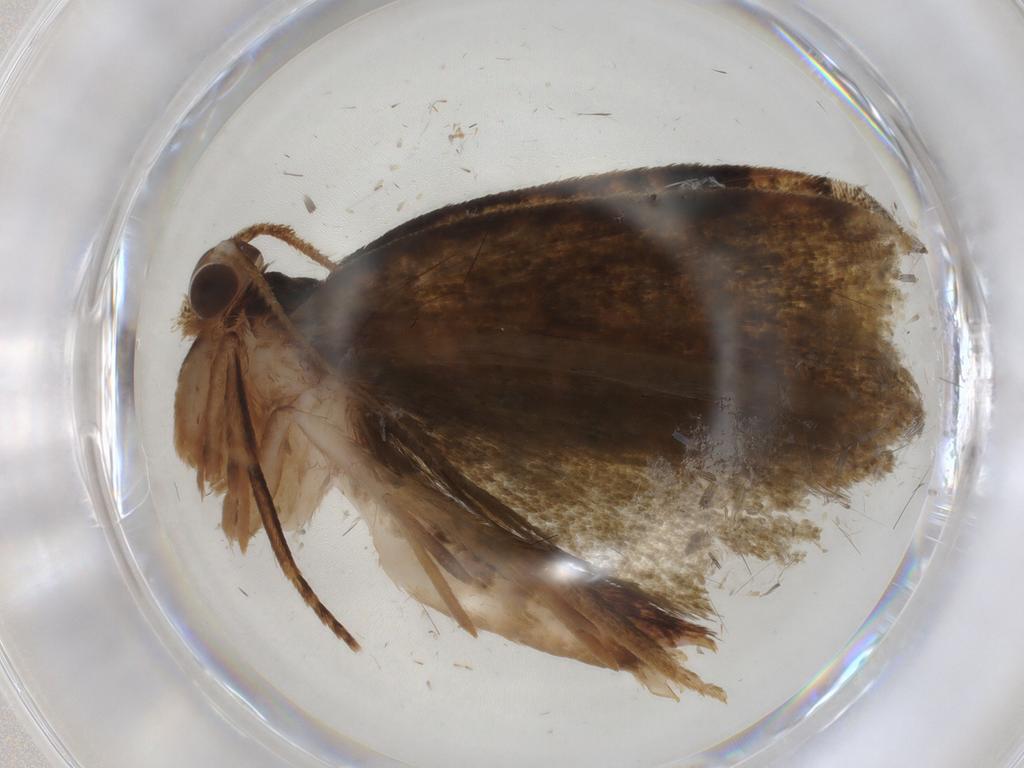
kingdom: Animalia
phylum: Arthropoda
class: Insecta
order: Lepidoptera
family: Geometridae
